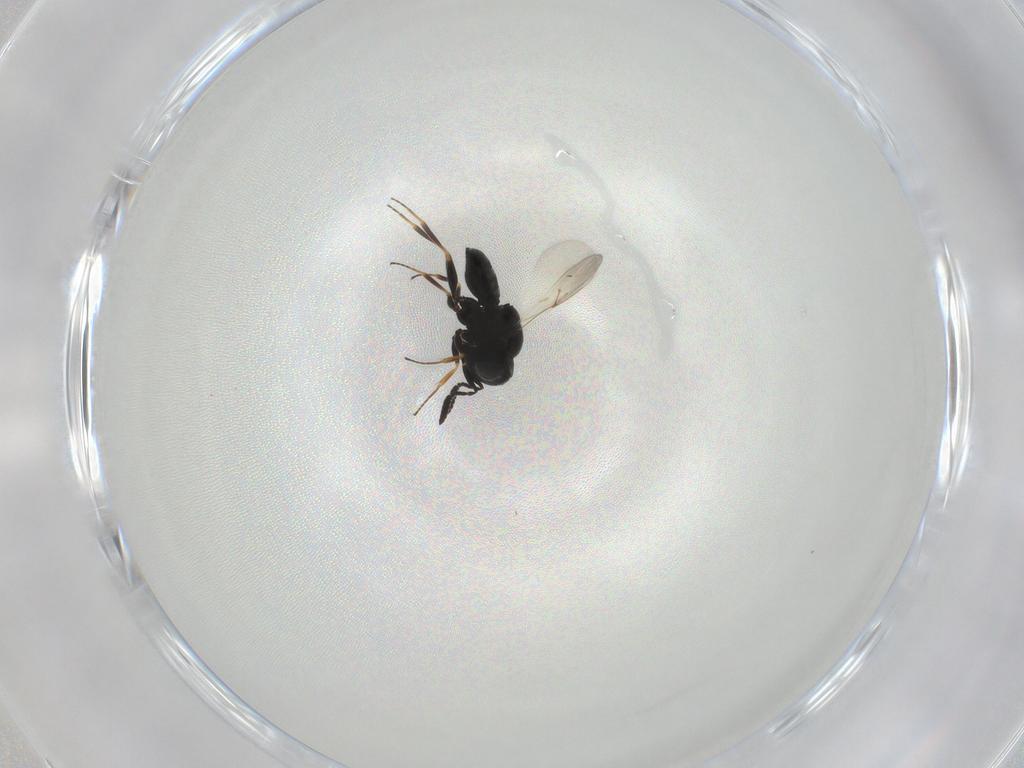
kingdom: Animalia
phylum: Arthropoda
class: Insecta
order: Hymenoptera
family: Scelionidae
